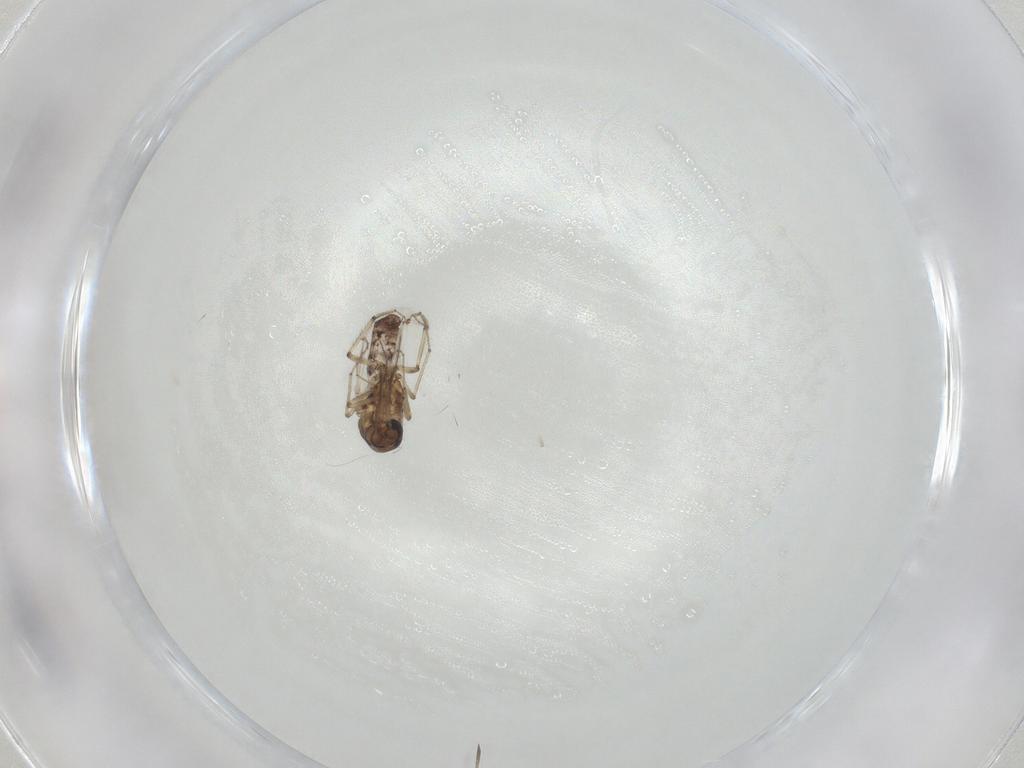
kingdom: Animalia
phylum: Arthropoda
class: Insecta
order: Diptera
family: Ceratopogonidae
